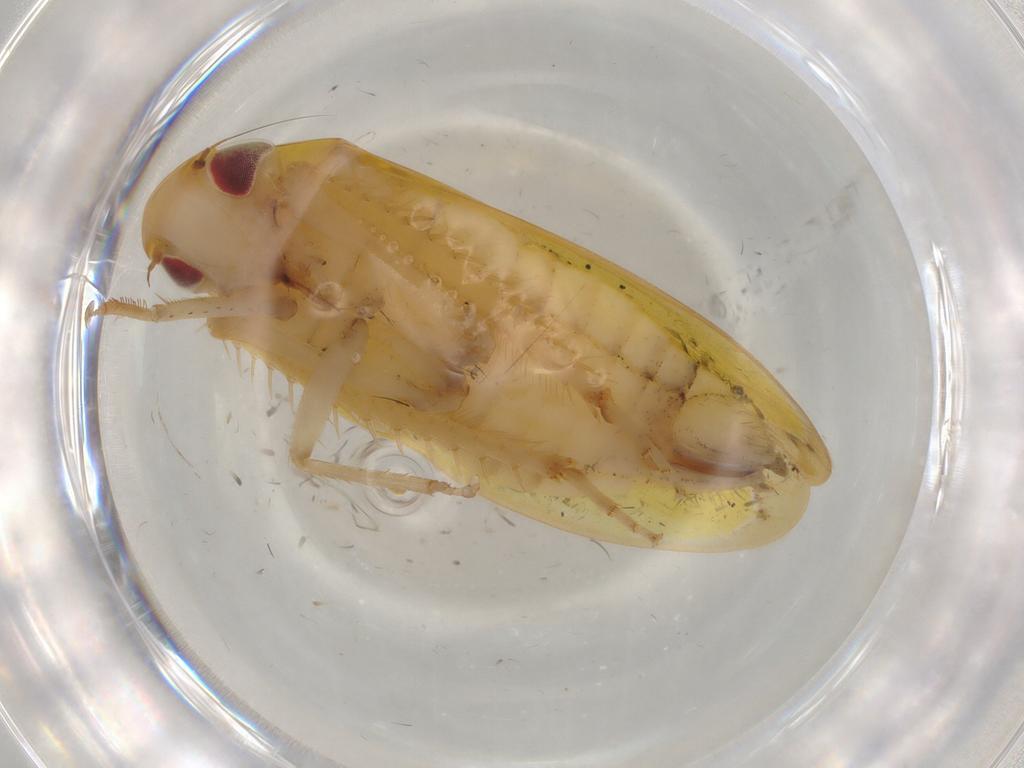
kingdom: Animalia
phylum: Arthropoda
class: Insecta
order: Hemiptera
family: Cicadellidae
